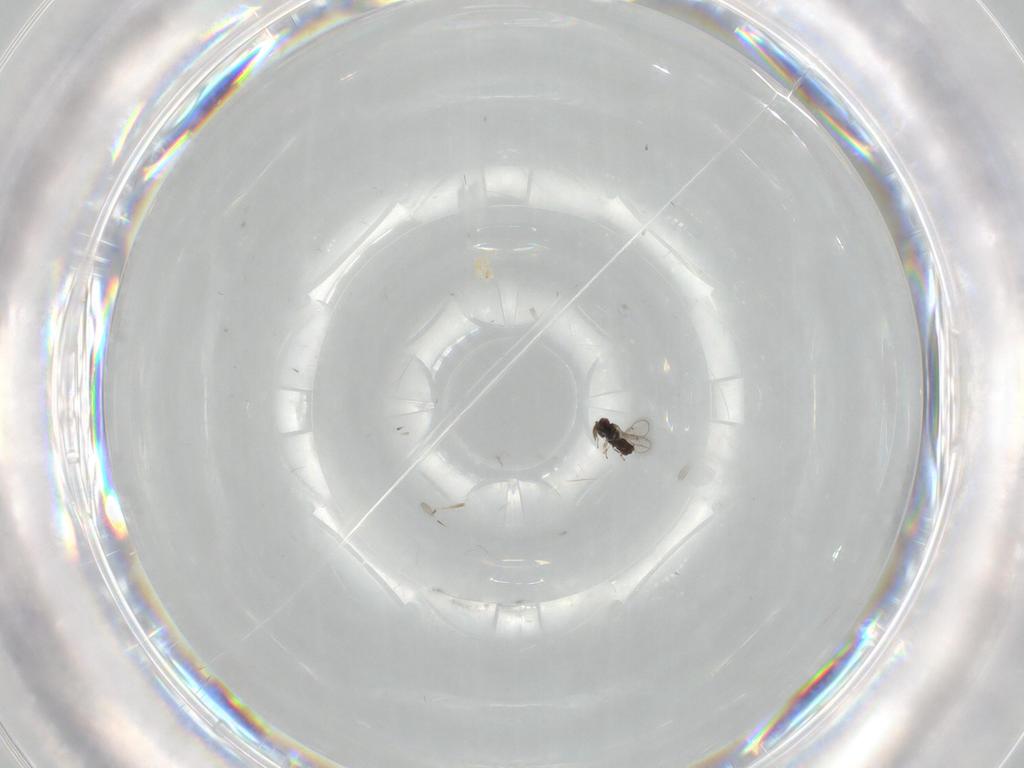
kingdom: Animalia
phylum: Arthropoda
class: Insecta
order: Hymenoptera
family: Eulophidae
